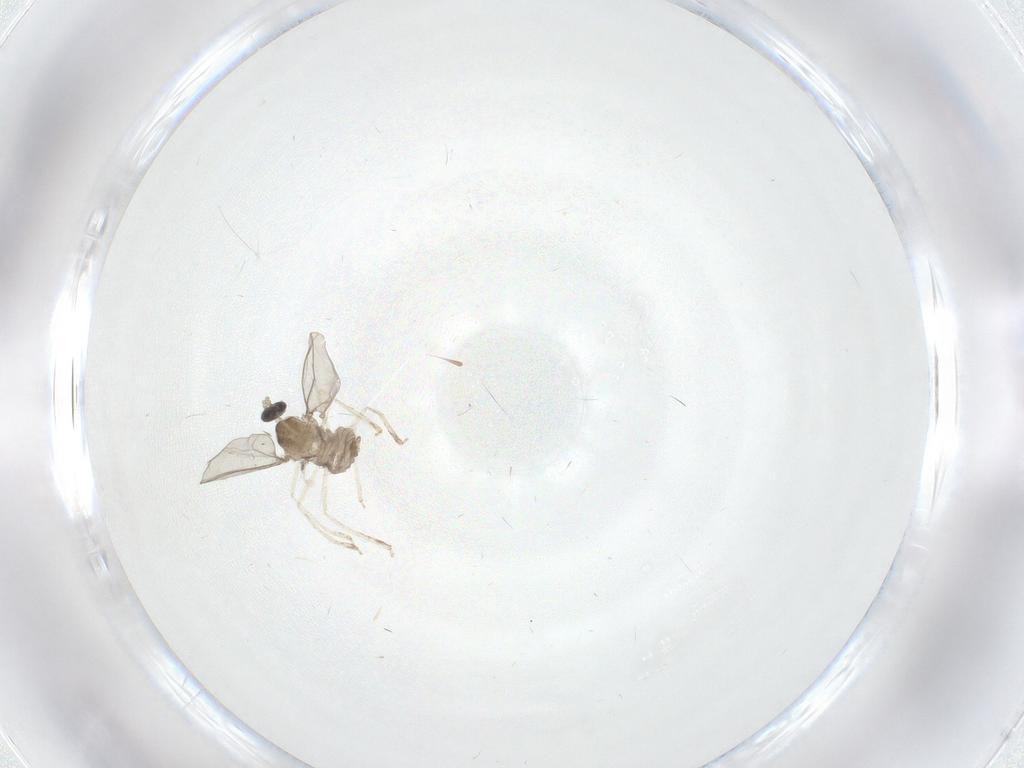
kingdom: Animalia
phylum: Arthropoda
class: Insecta
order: Diptera
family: Cecidomyiidae
